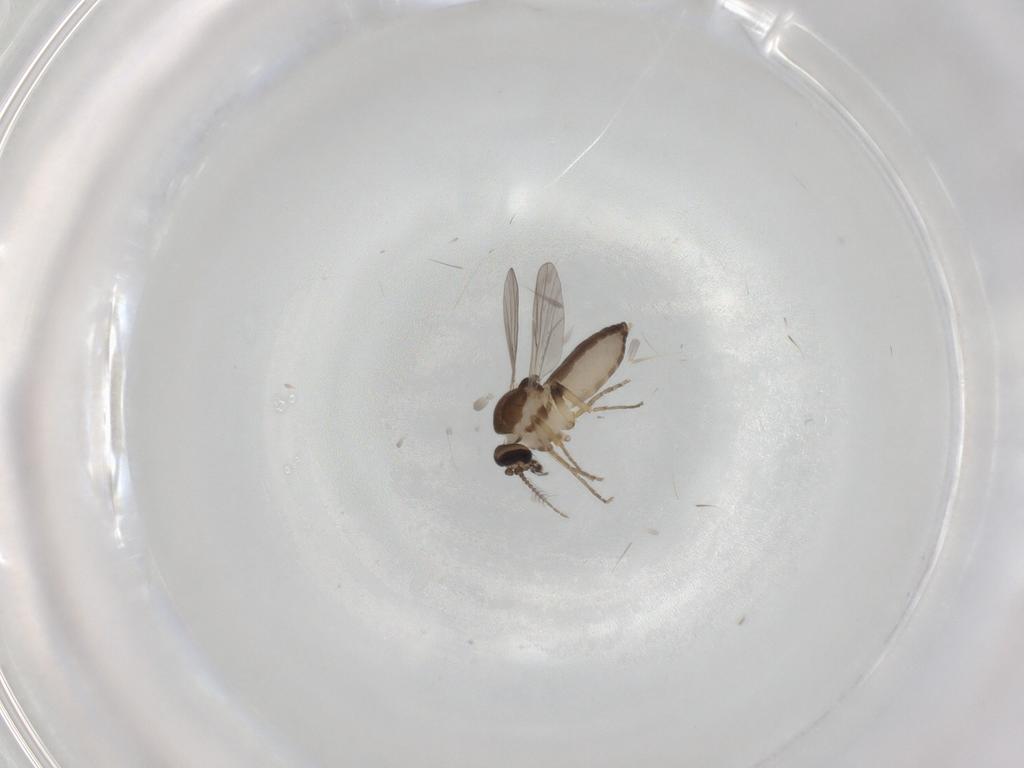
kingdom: Animalia
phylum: Arthropoda
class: Insecta
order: Diptera
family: Ceratopogonidae
